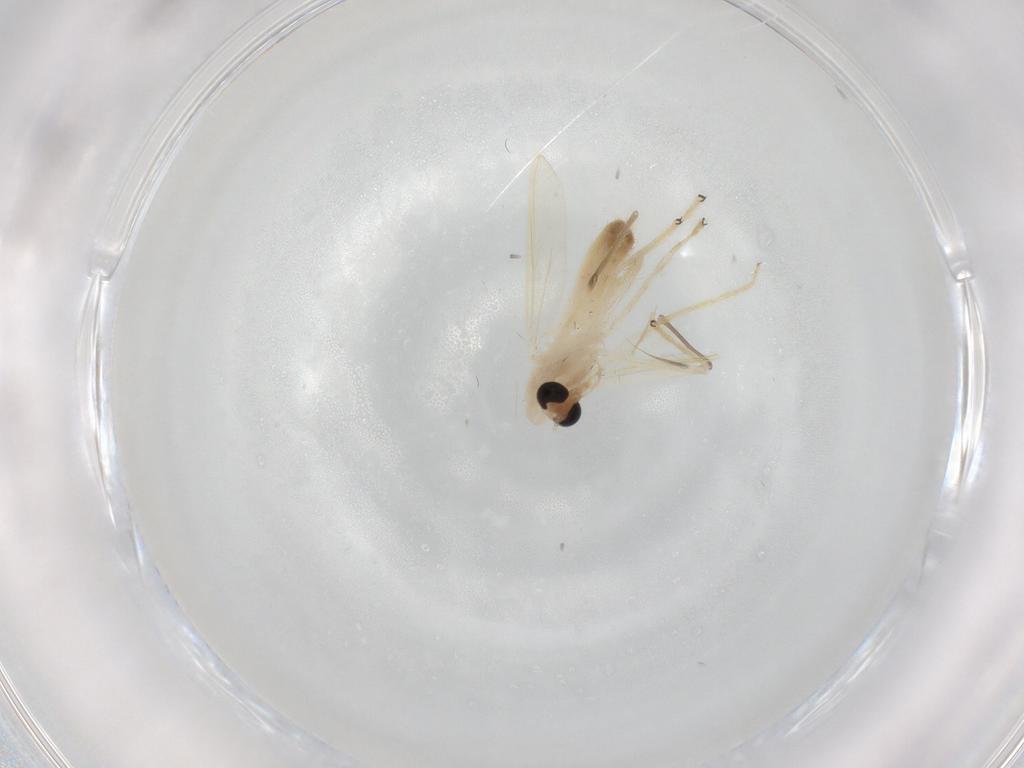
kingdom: Animalia
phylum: Arthropoda
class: Insecta
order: Diptera
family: Chironomidae
